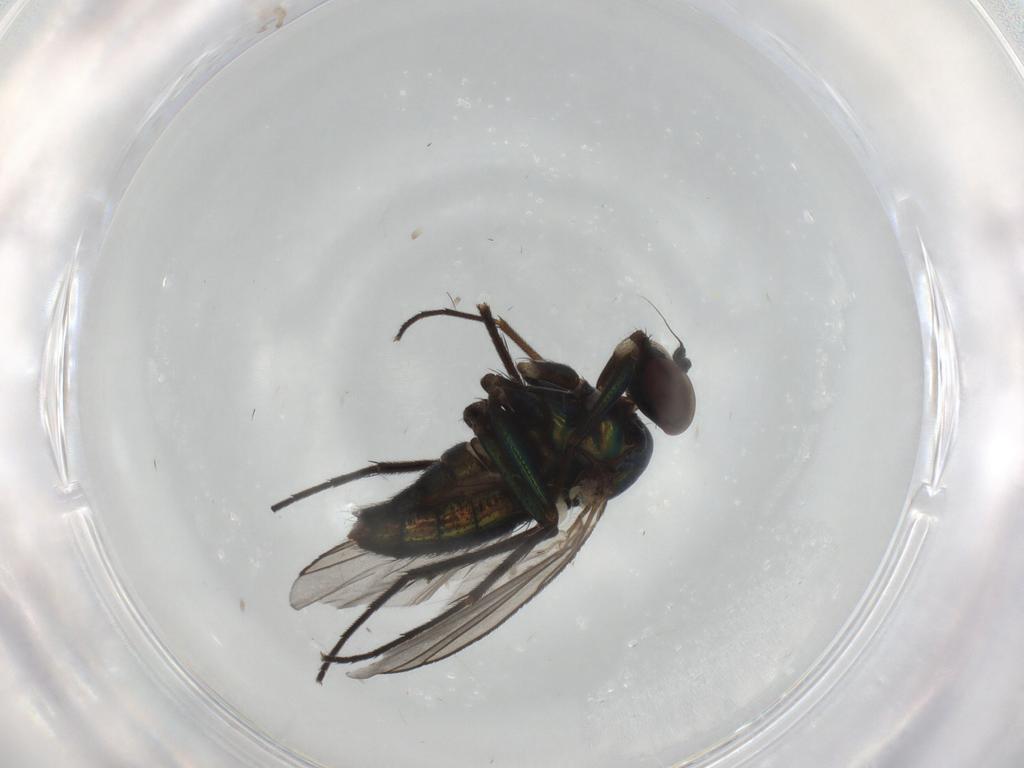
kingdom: Animalia
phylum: Arthropoda
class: Insecta
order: Diptera
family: Dolichopodidae
